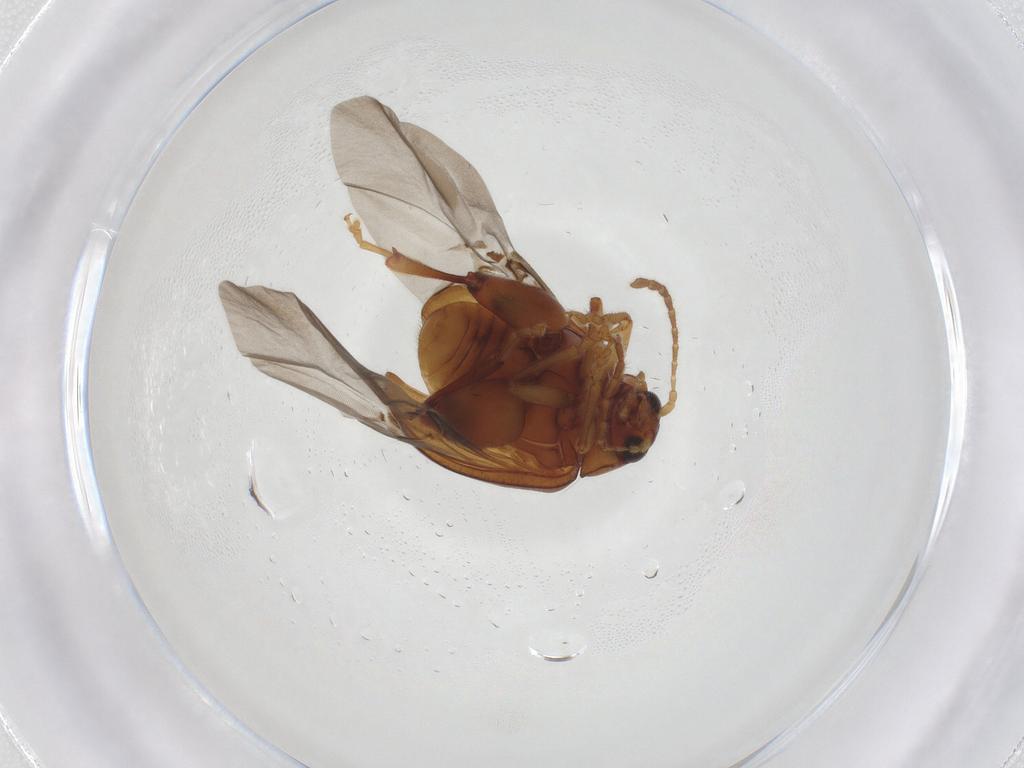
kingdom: Animalia
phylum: Arthropoda
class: Insecta
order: Coleoptera
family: Chrysomelidae
